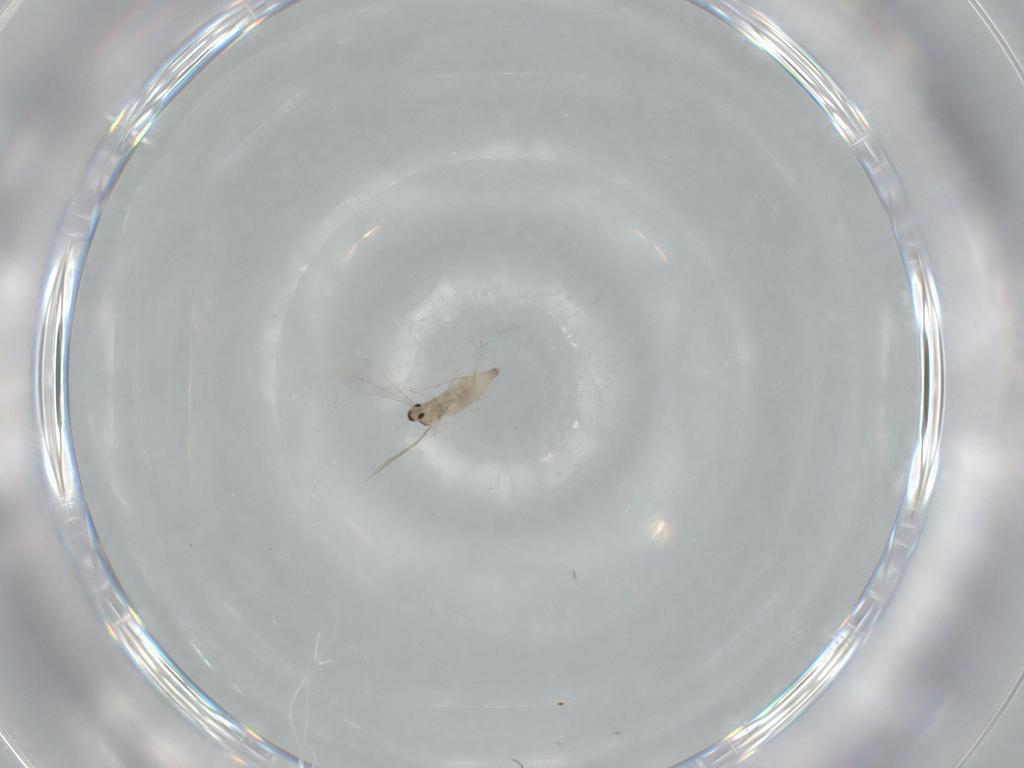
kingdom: Animalia
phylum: Arthropoda
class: Insecta
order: Diptera
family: Cecidomyiidae
